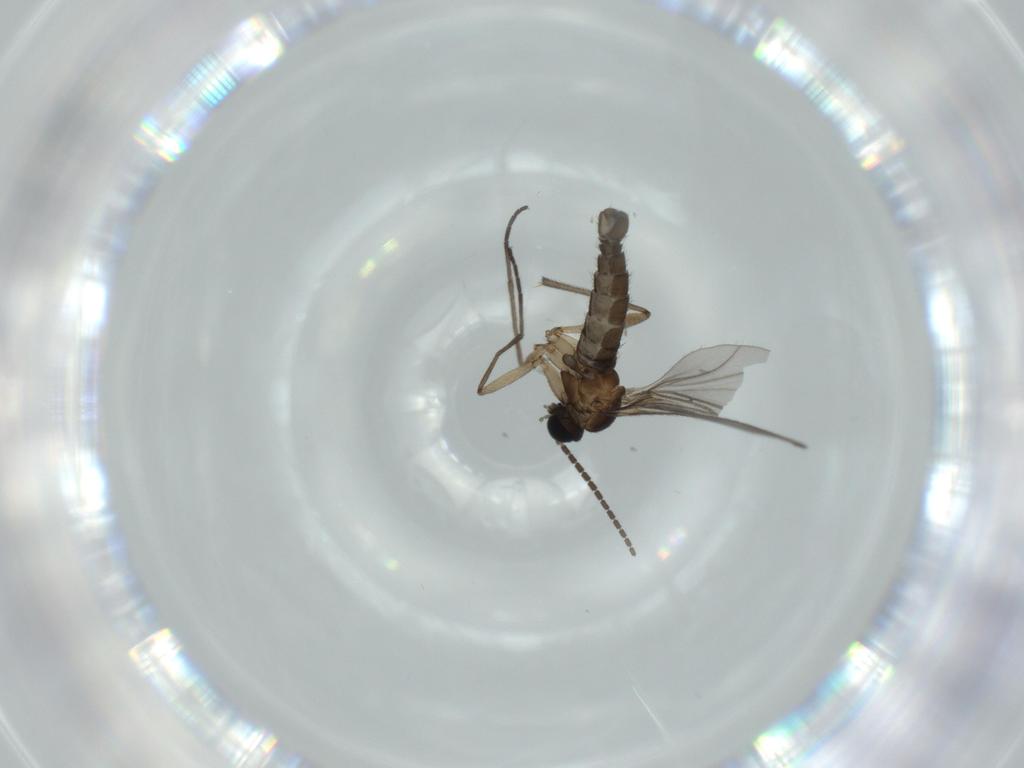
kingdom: Animalia
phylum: Arthropoda
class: Insecta
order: Diptera
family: Sciaridae
